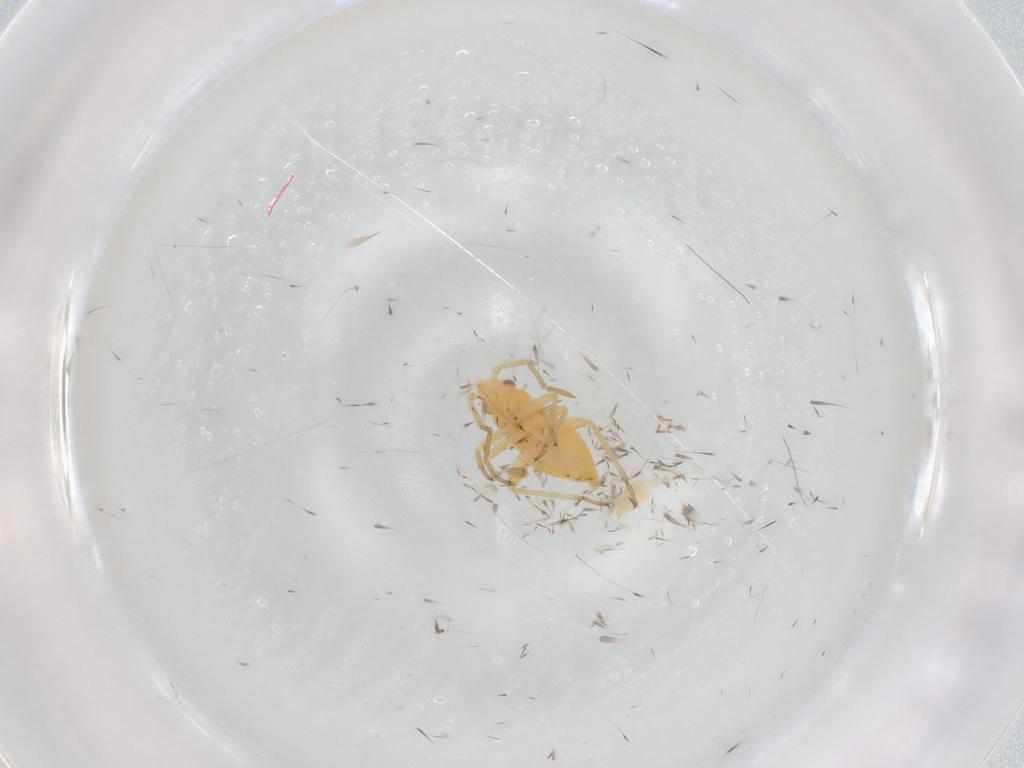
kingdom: Animalia
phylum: Arthropoda
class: Insecta
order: Hemiptera
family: Miridae
